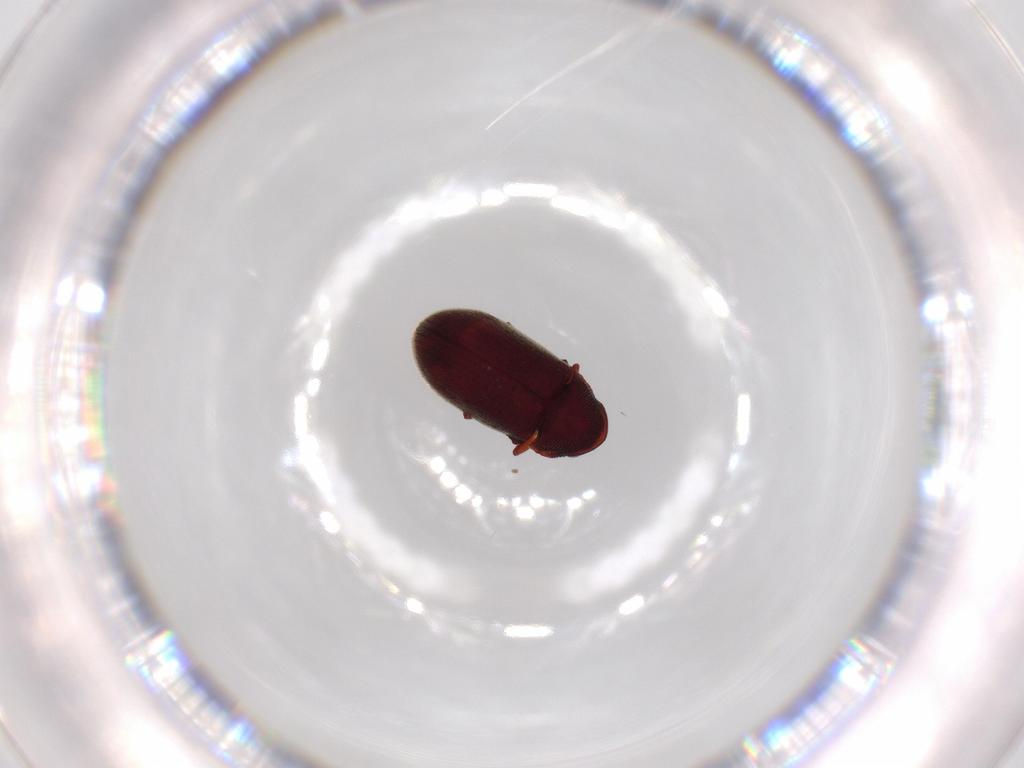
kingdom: Animalia
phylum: Arthropoda
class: Insecta
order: Coleoptera
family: Anobiidae
